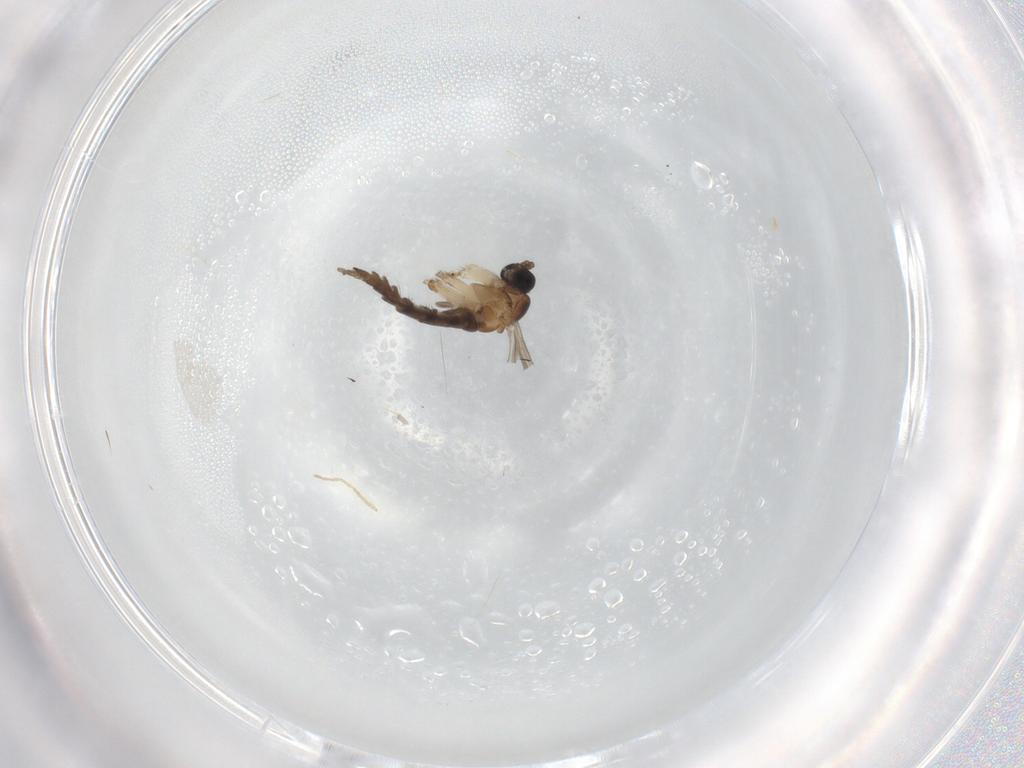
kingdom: Animalia
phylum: Arthropoda
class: Insecta
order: Diptera
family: Sciaridae
